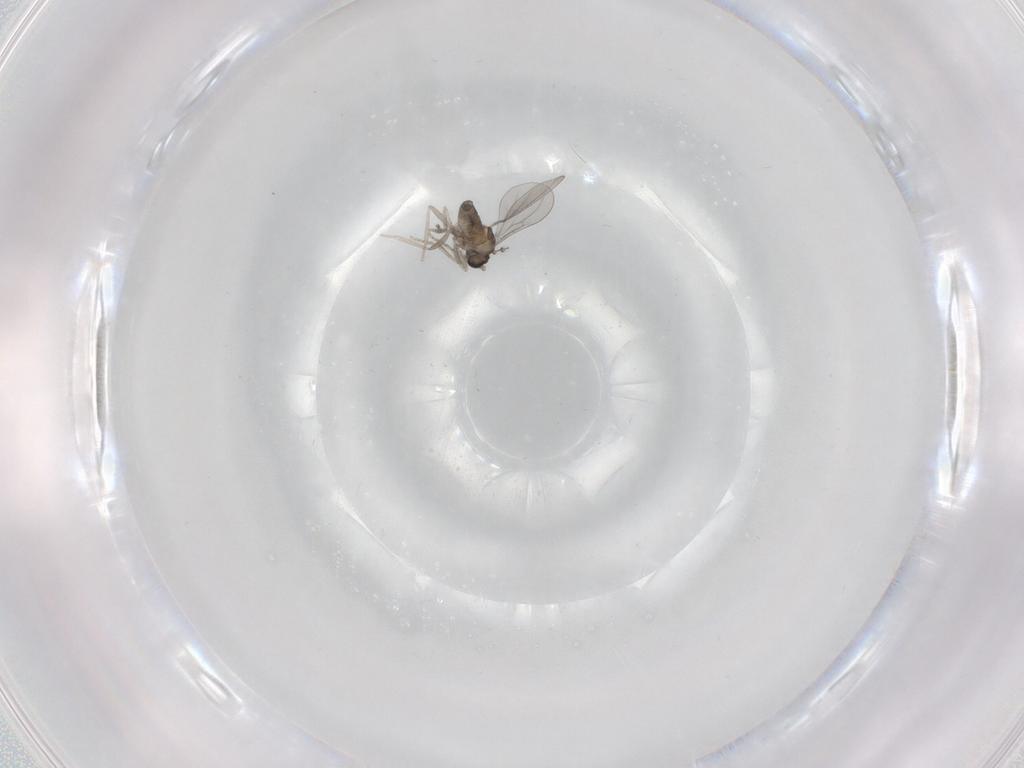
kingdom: Animalia
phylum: Arthropoda
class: Insecta
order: Diptera
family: Cecidomyiidae
